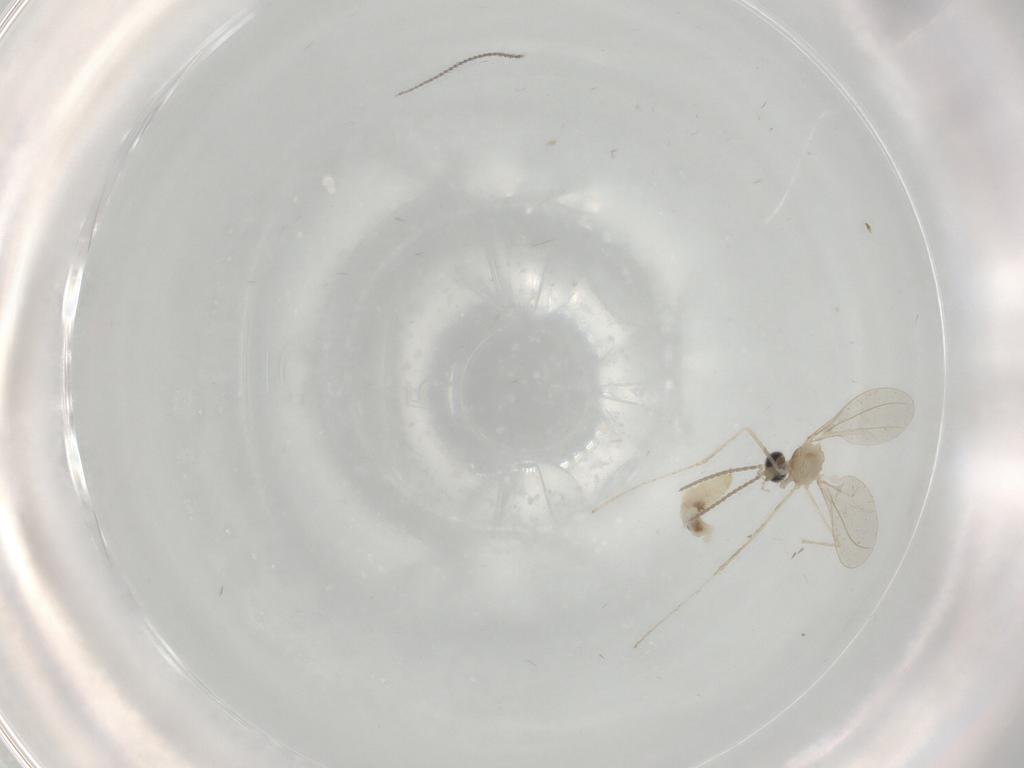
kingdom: Animalia
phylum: Arthropoda
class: Insecta
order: Diptera
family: Cecidomyiidae
